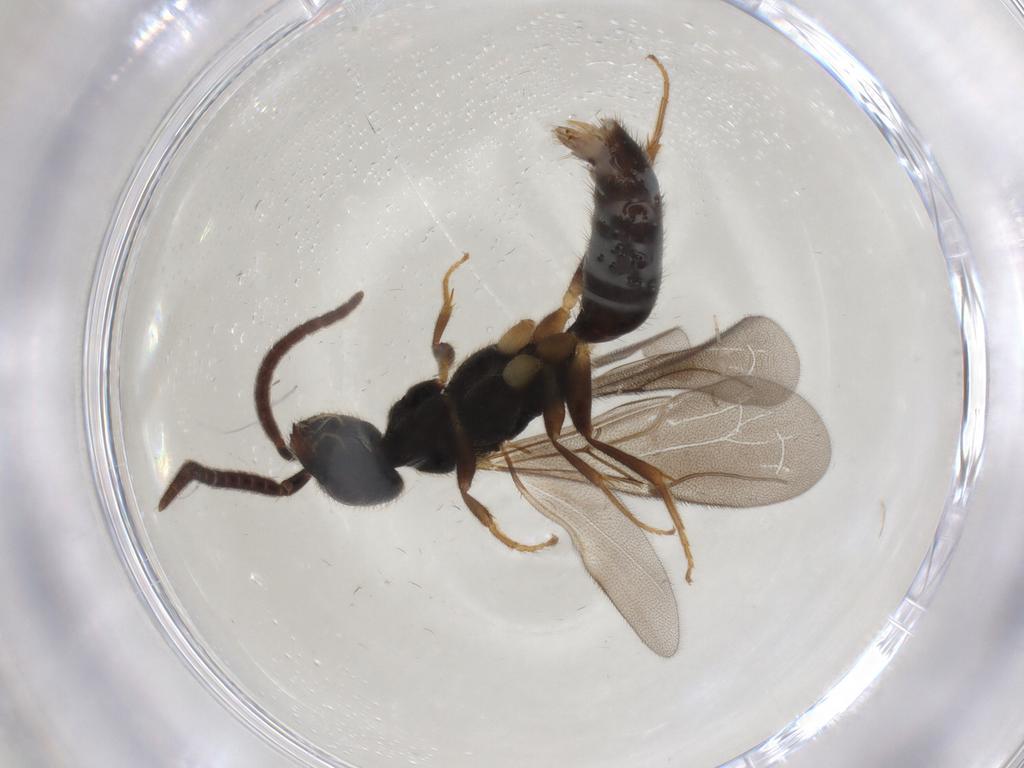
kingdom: Animalia
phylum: Arthropoda
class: Insecta
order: Hymenoptera
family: Bethylidae
